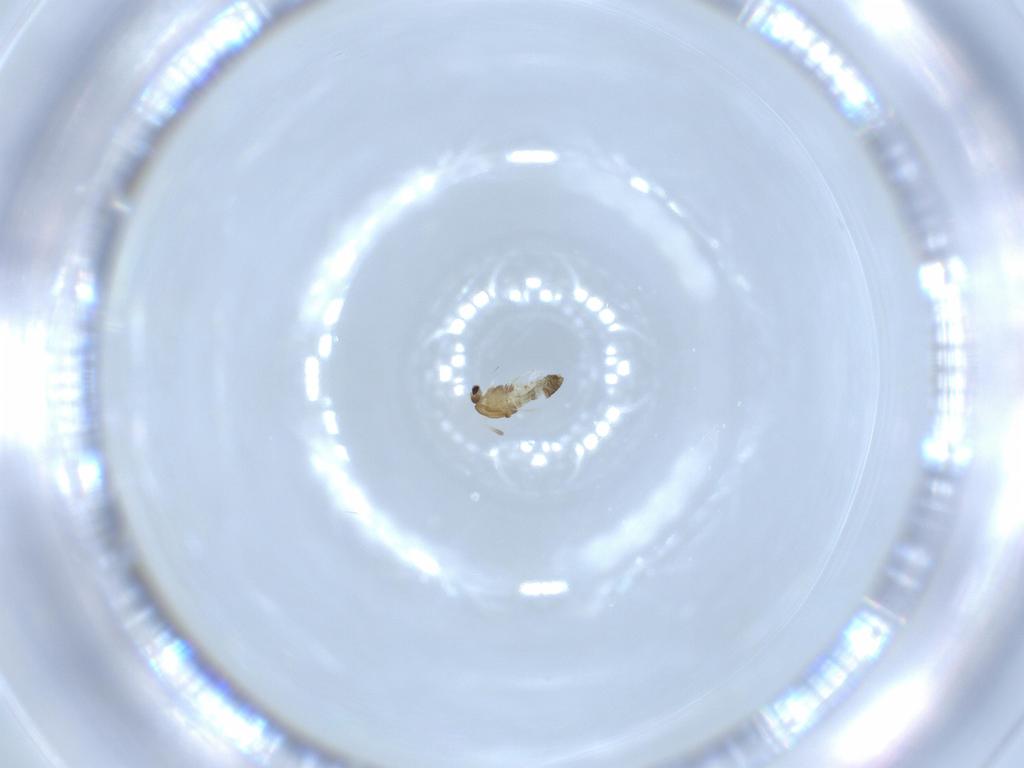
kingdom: Animalia
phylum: Arthropoda
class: Insecta
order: Diptera
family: Chironomidae
